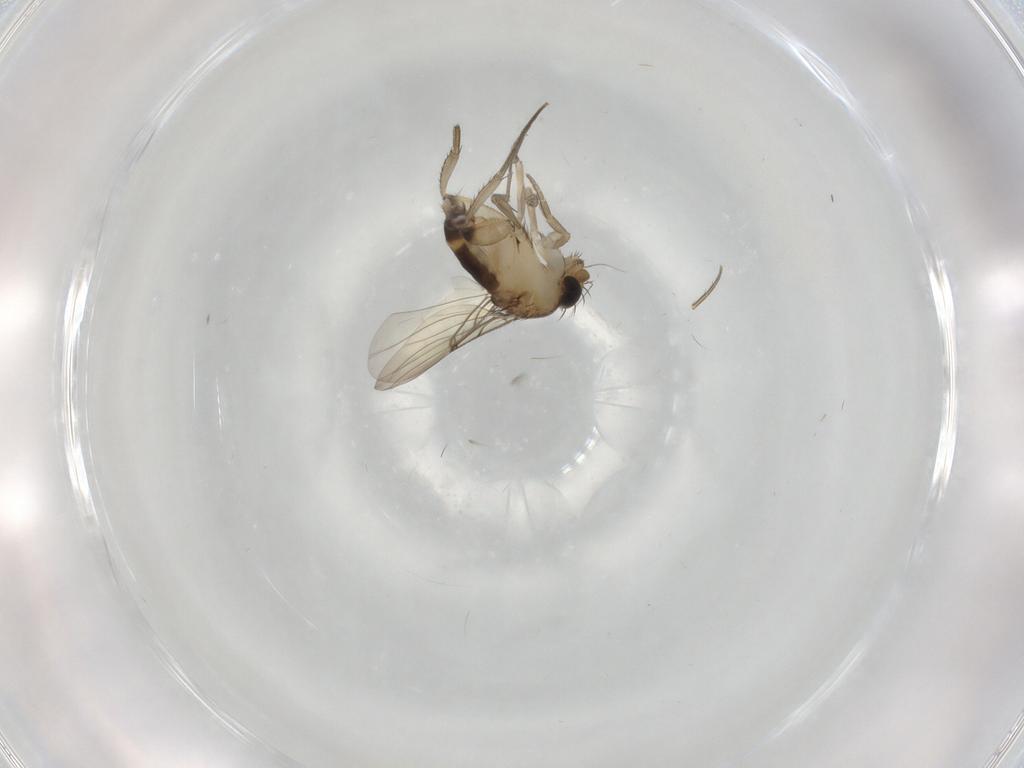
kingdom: Animalia
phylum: Arthropoda
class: Insecta
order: Diptera
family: Phoridae
